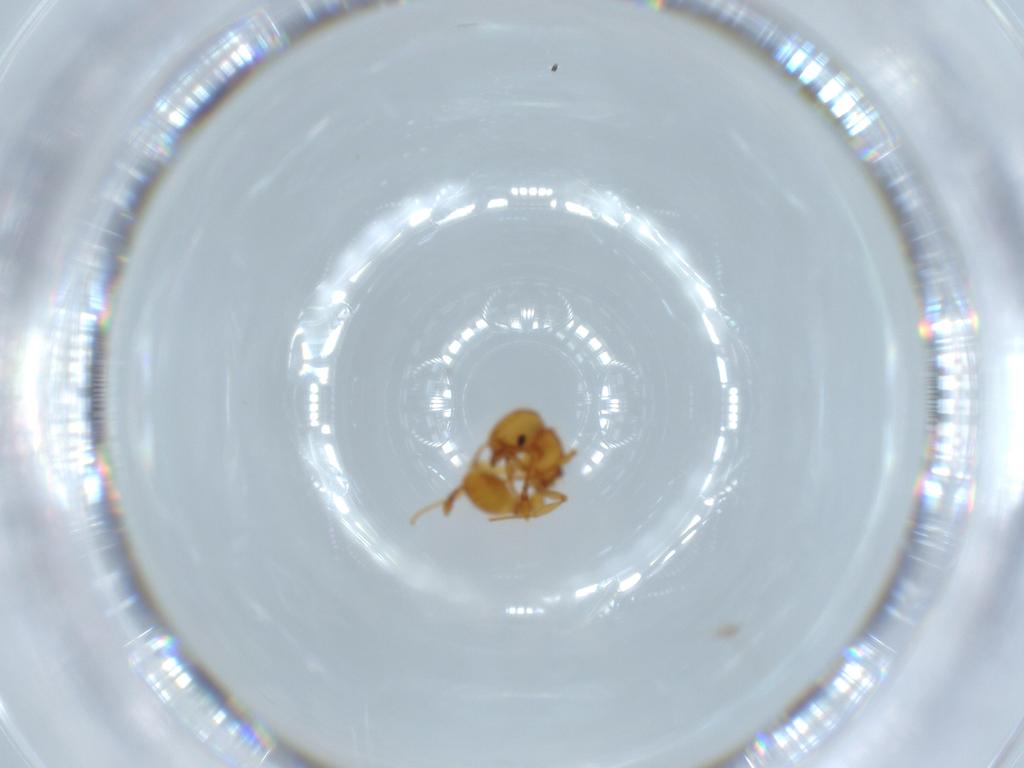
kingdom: Animalia
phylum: Arthropoda
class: Insecta
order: Hymenoptera
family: Formicidae
